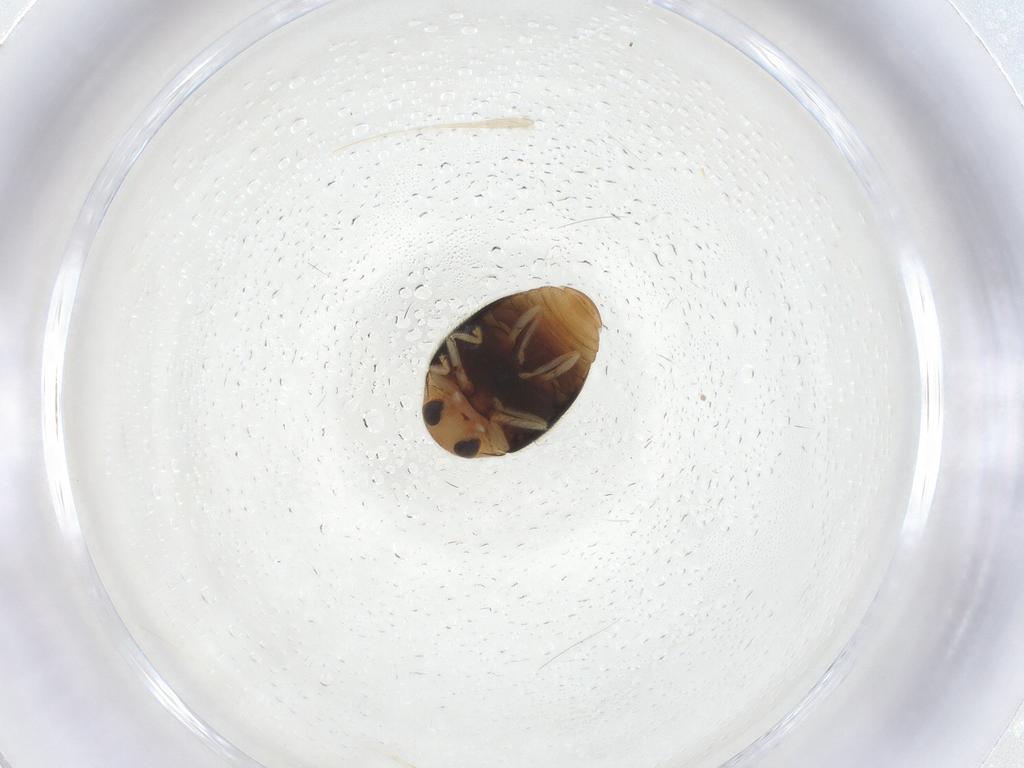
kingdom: Animalia
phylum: Arthropoda
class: Insecta
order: Coleoptera
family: Coccinellidae
